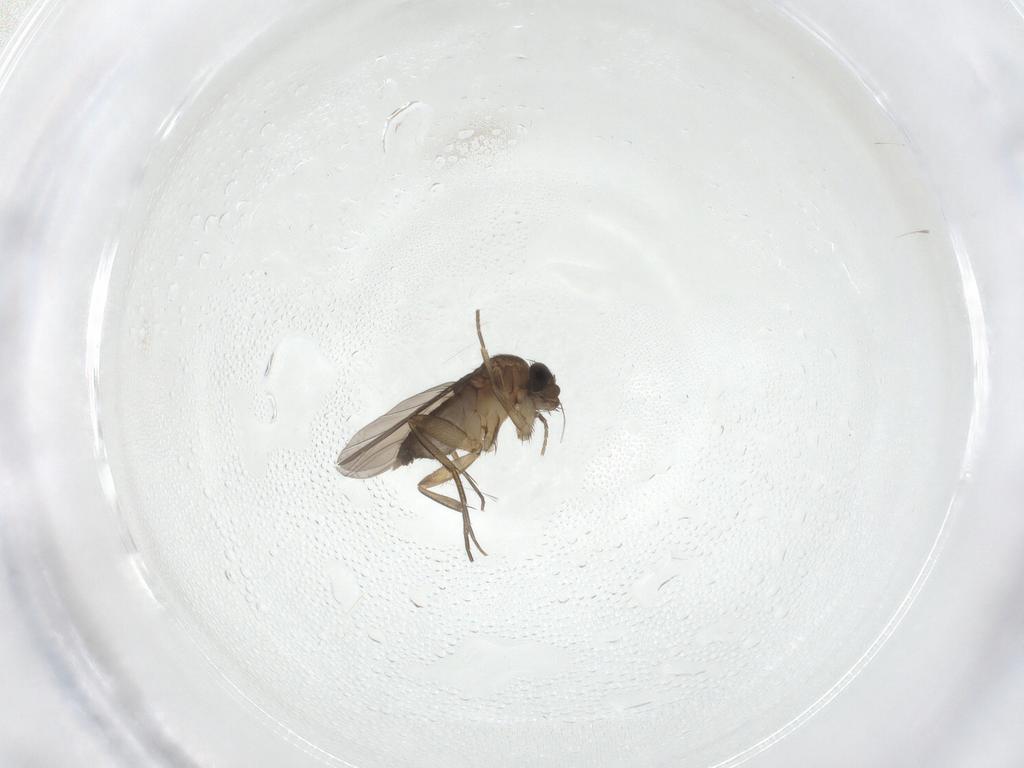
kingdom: Animalia
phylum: Arthropoda
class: Insecta
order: Diptera
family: Phoridae
